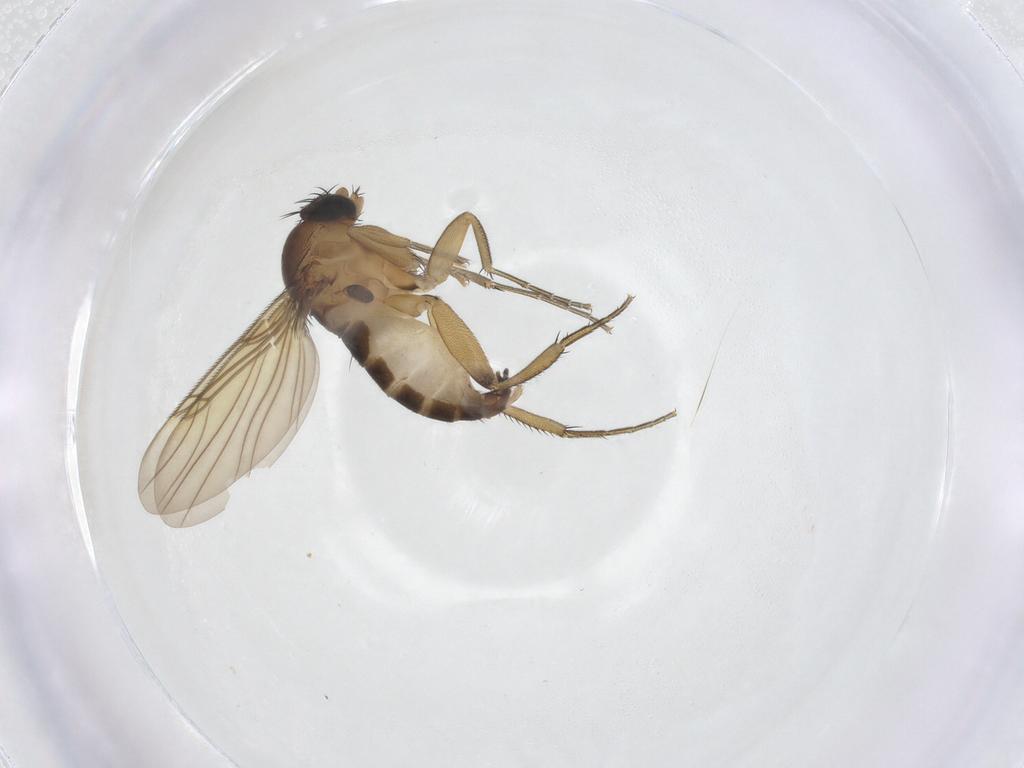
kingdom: Animalia
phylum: Arthropoda
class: Insecta
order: Diptera
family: Phoridae
